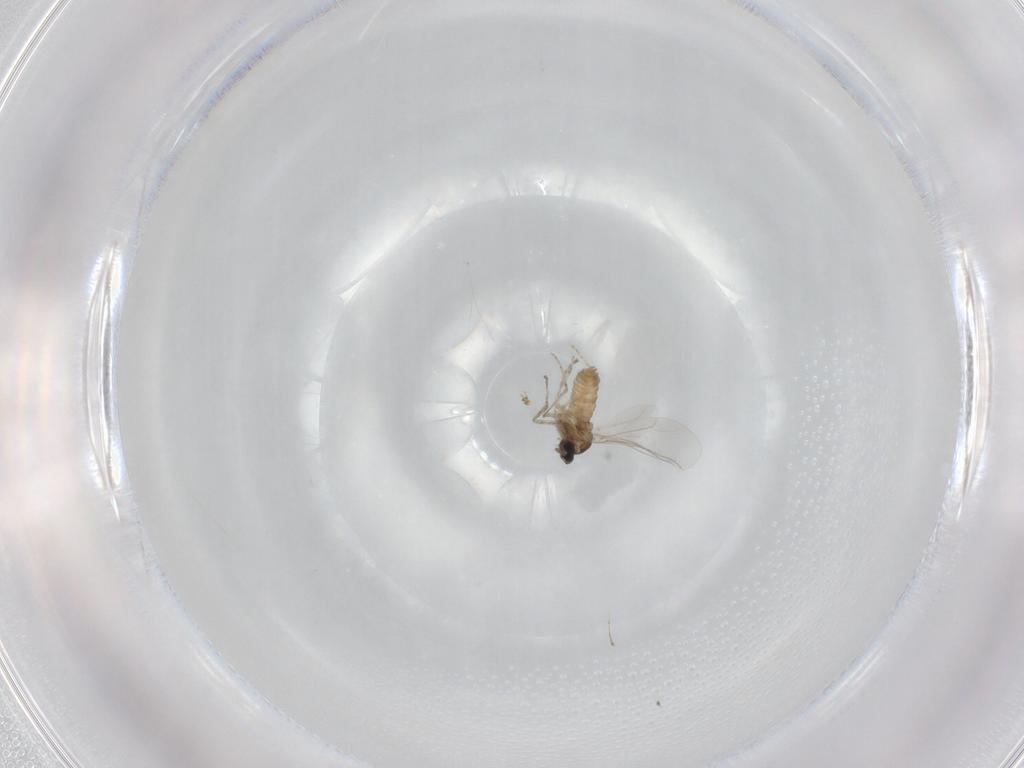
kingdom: Animalia
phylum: Arthropoda
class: Insecta
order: Diptera
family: Cecidomyiidae
